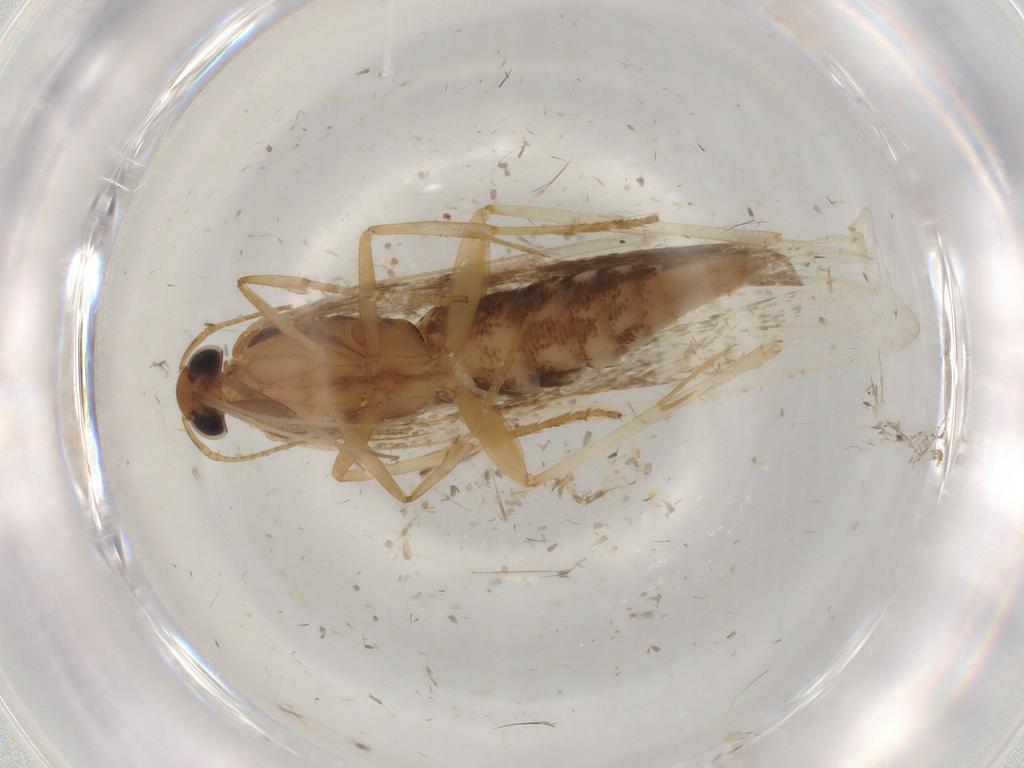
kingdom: Animalia
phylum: Arthropoda
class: Insecta
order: Lepidoptera
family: Gelechiidae
